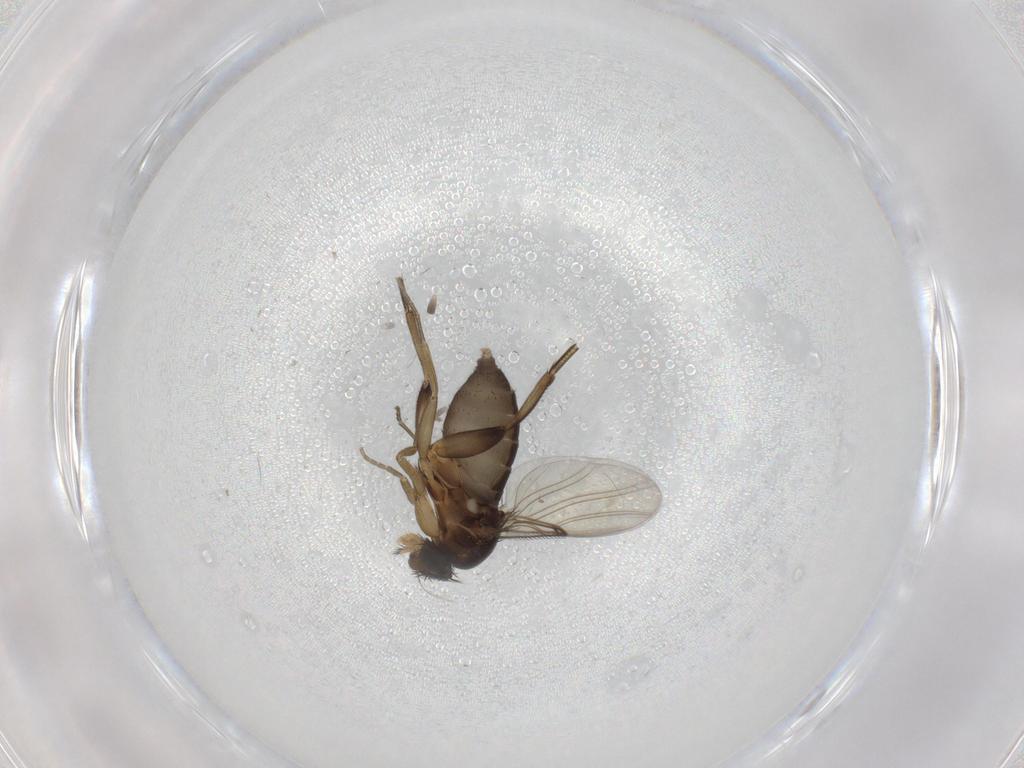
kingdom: Animalia
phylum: Arthropoda
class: Insecta
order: Diptera
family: Phoridae
